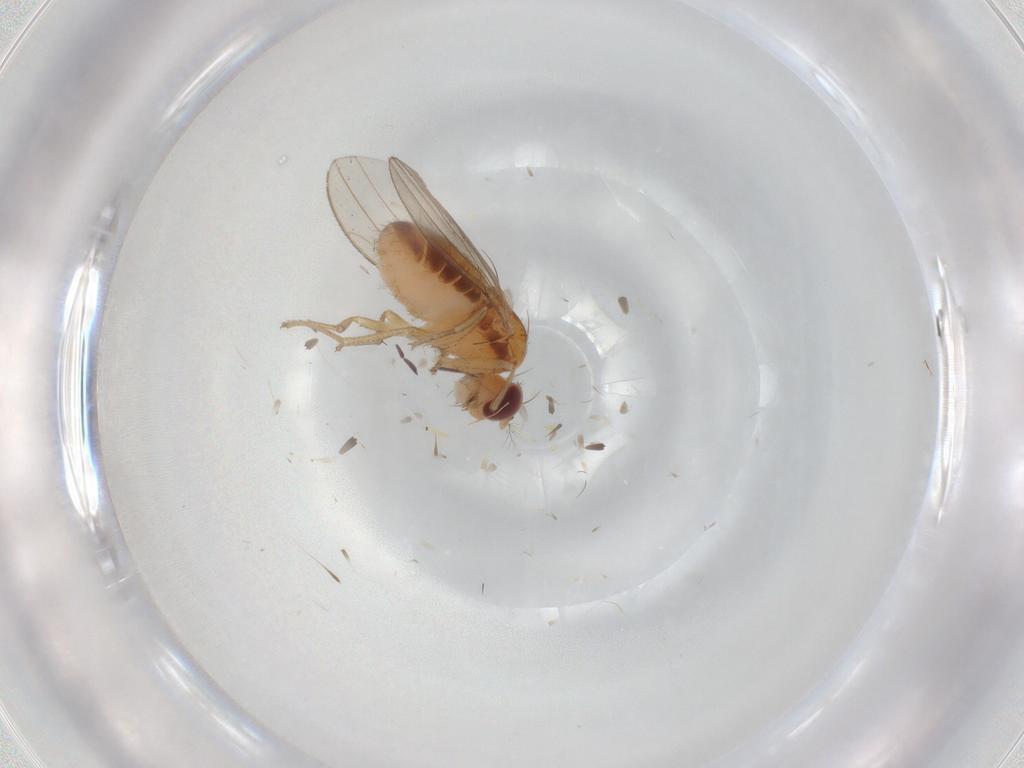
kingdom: Animalia
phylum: Arthropoda
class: Insecta
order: Diptera
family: Drosophilidae
